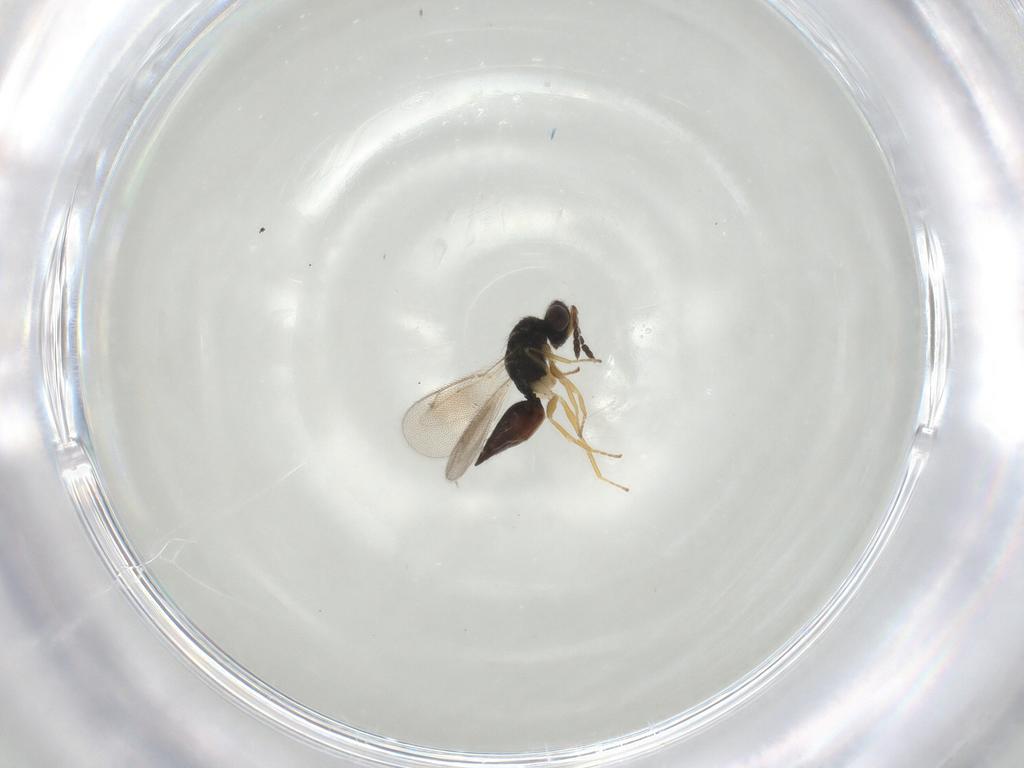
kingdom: Animalia
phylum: Arthropoda
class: Insecta
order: Hymenoptera
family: Eulophidae
